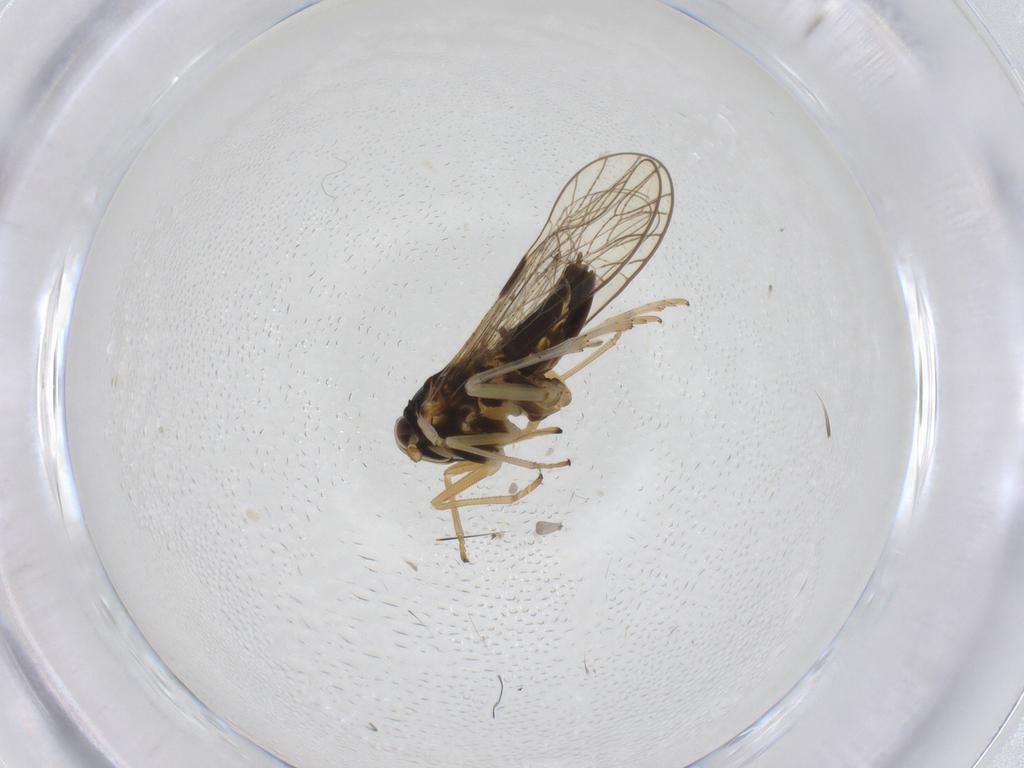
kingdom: Animalia
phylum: Arthropoda
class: Insecta
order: Hemiptera
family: Cicadellidae
